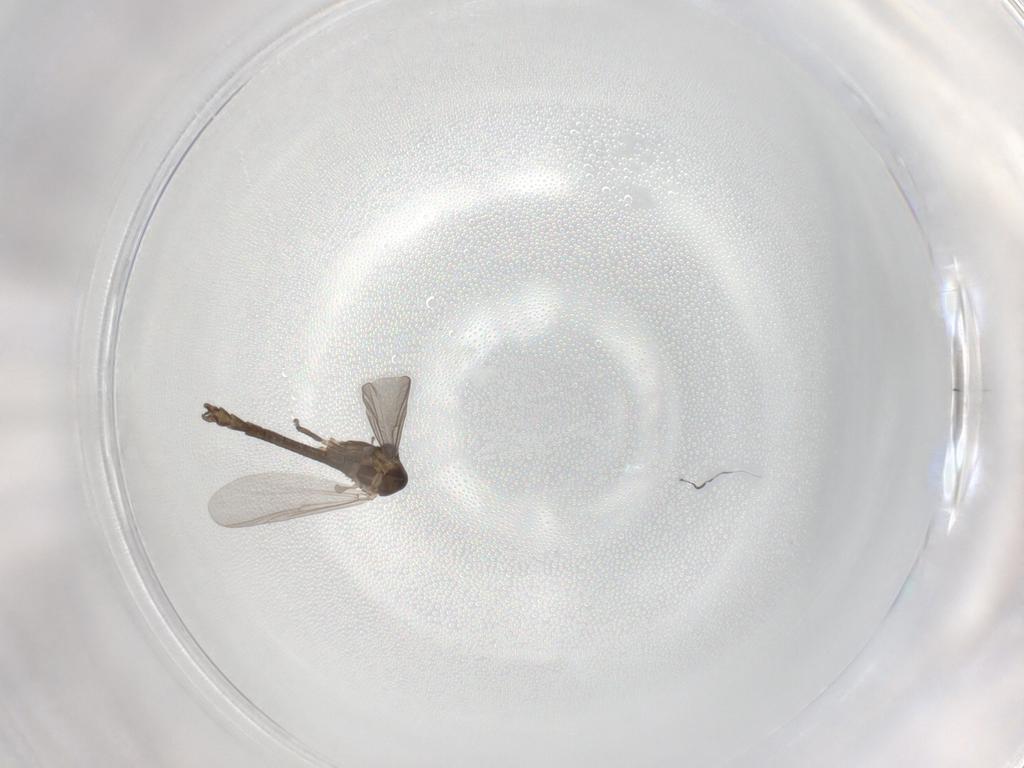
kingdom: Animalia
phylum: Arthropoda
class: Insecta
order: Diptera
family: Chironomidae
